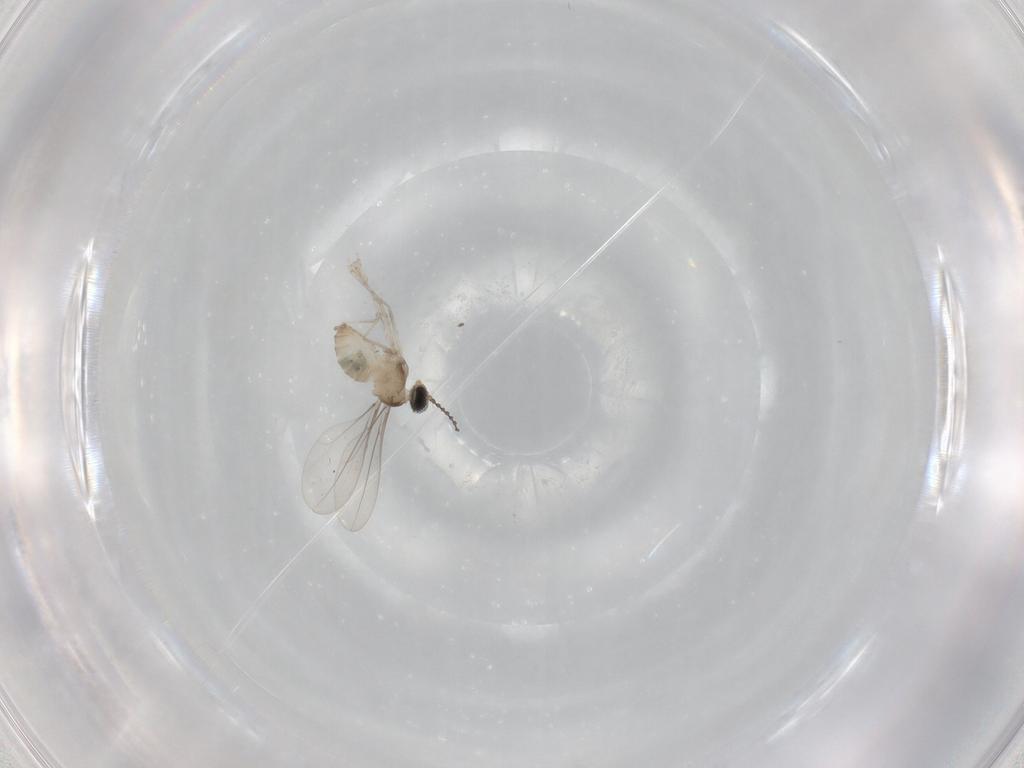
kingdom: Animalia
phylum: Arthropoda
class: Insecta
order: Diptera
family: Cecidomyiidae
